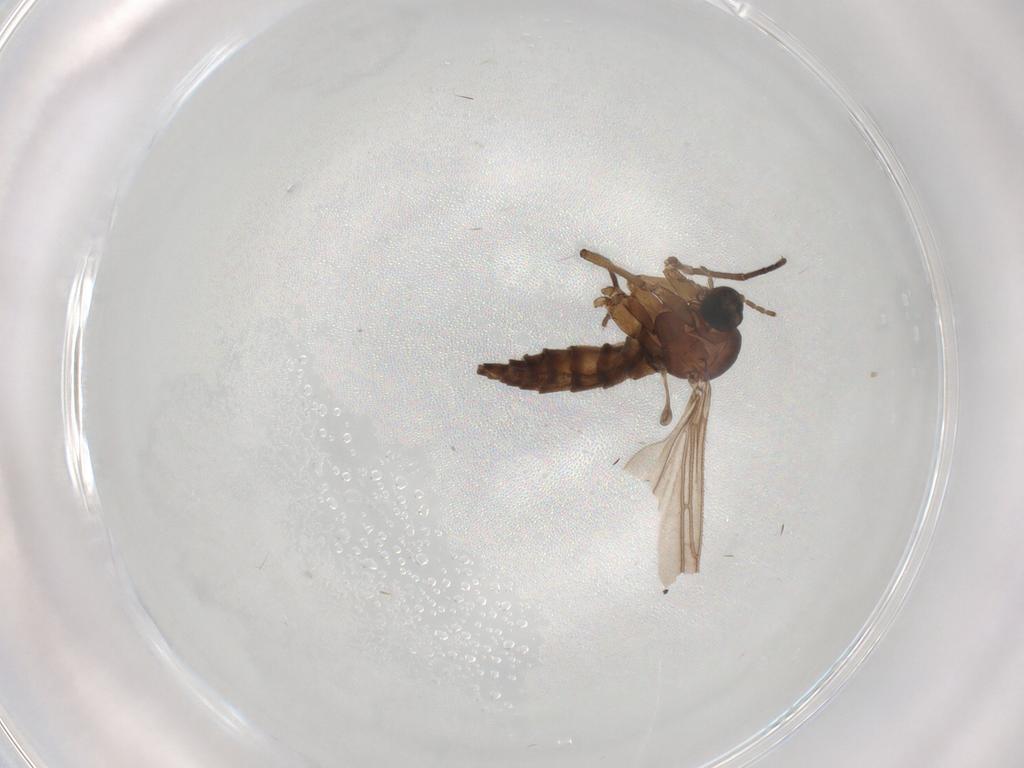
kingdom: Animalia
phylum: Arthropoda
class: Insecta
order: Diptera
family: Sciaridae
